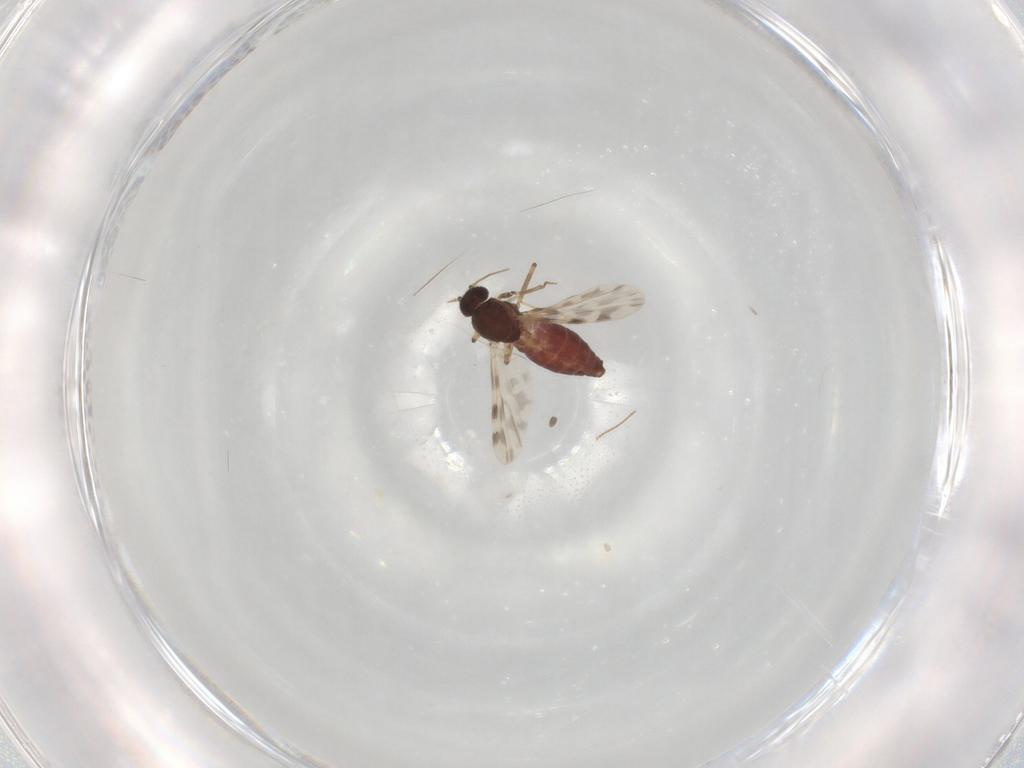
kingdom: Animalia
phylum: Arthropoda
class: Insecta
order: Diptera
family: Ceratopogonidae
